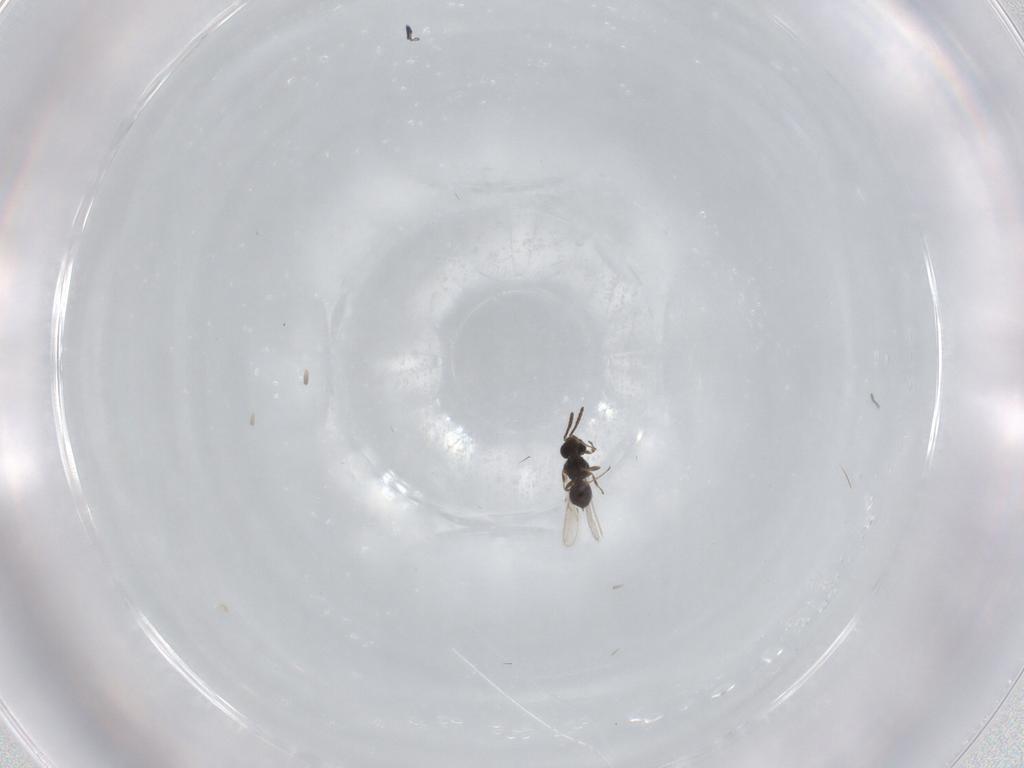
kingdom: Animalia
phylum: Arthropoda
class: Insecta
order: Hymenoptera
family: Scelionidae
